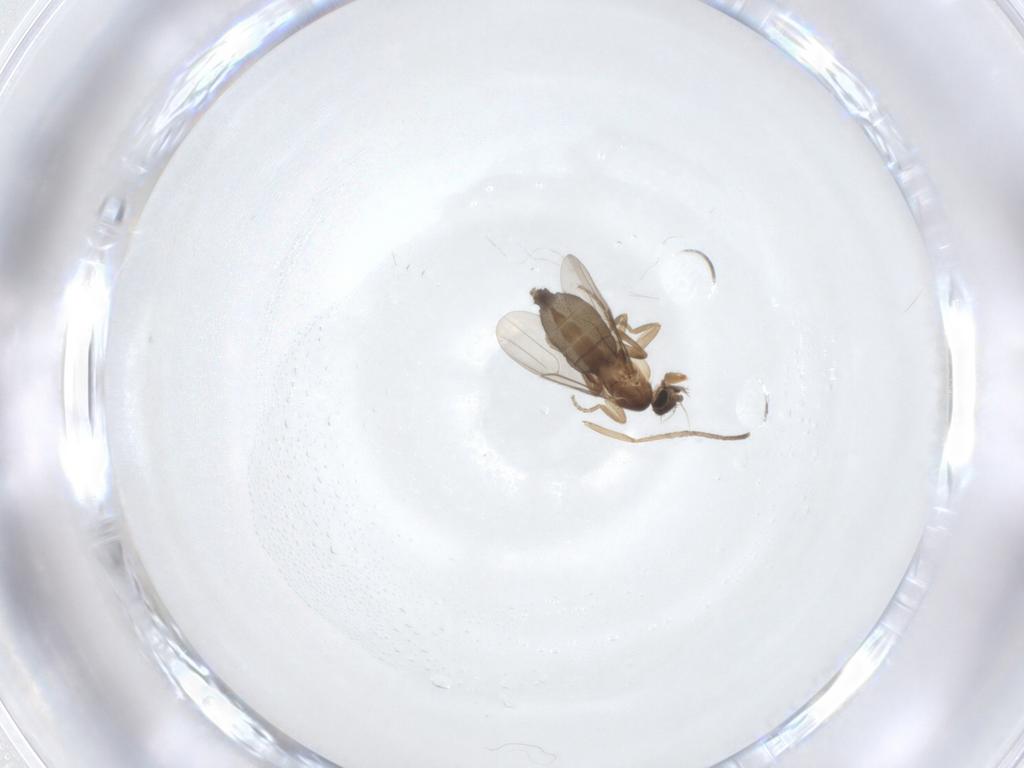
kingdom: Animalia
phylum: Arthropoda
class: Insecta
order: Diptera
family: Phoridae
